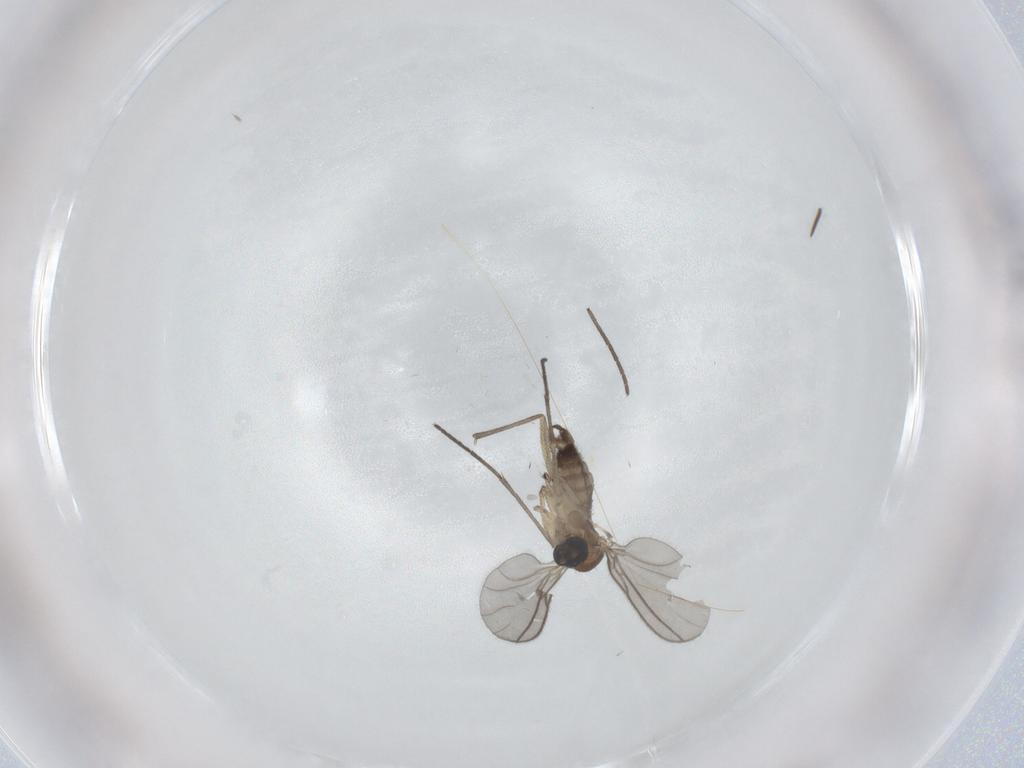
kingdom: Animalia
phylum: Arthropoda
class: Insecta
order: Diptera
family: Sciaridae
